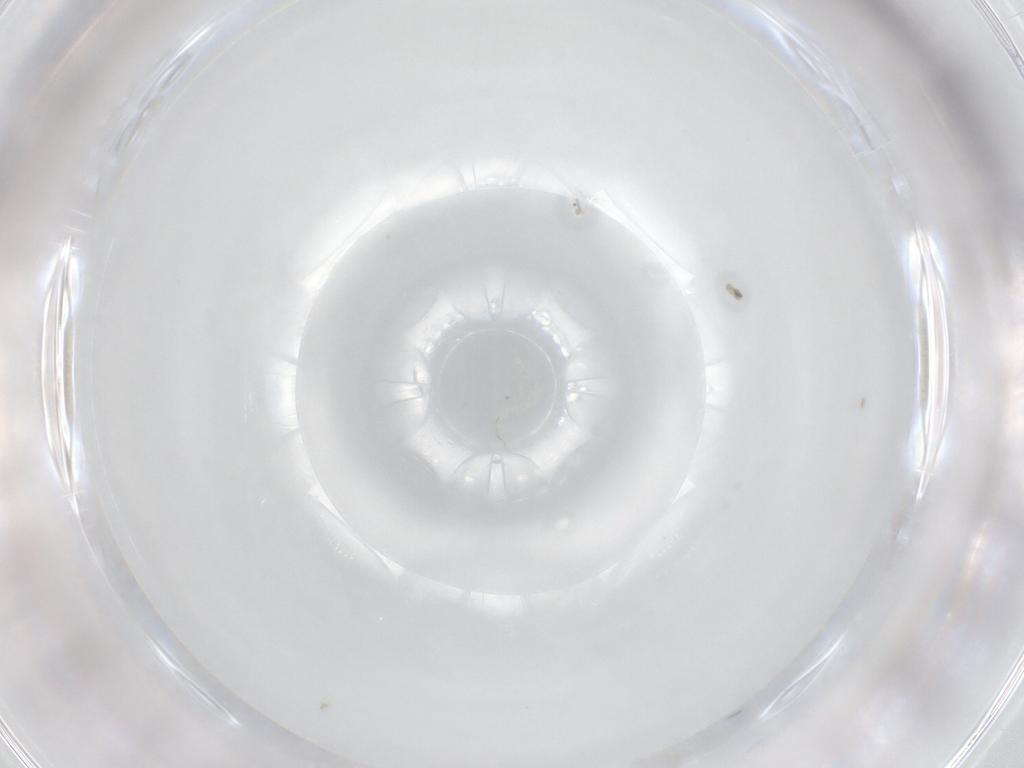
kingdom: Animalia
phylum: Arthropoda
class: Insecta
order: Diptera
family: Chironomidae
